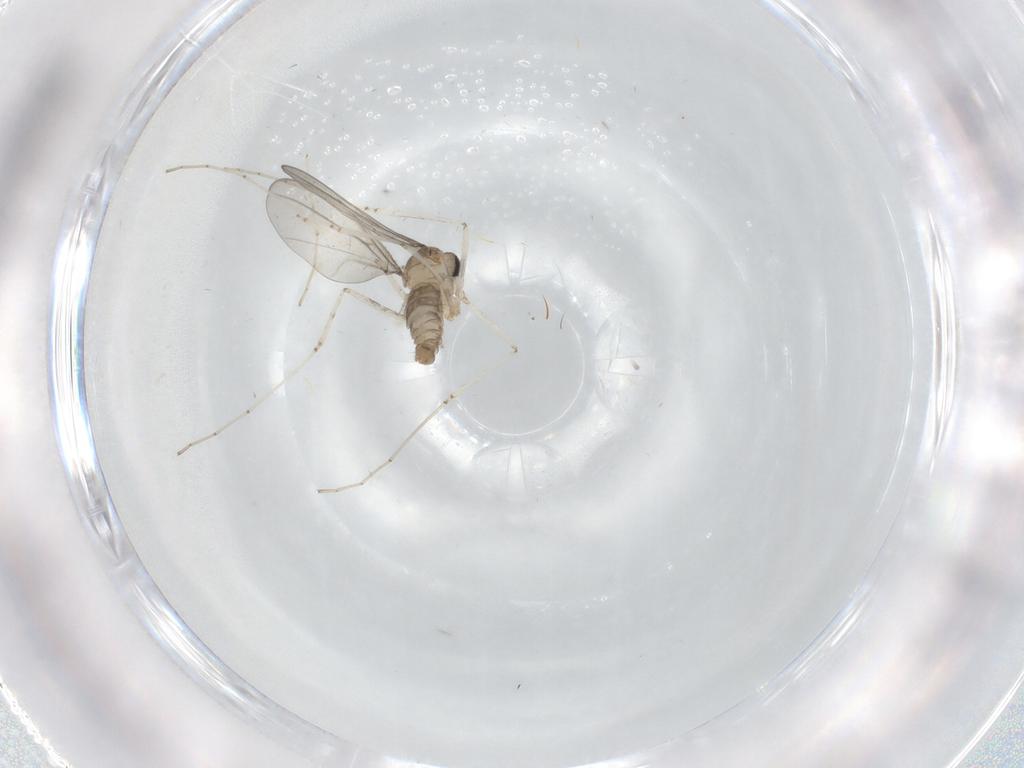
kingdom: Animalia
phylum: Arthropoda
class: Insecta
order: Diptera
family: Cecidomyiidae
